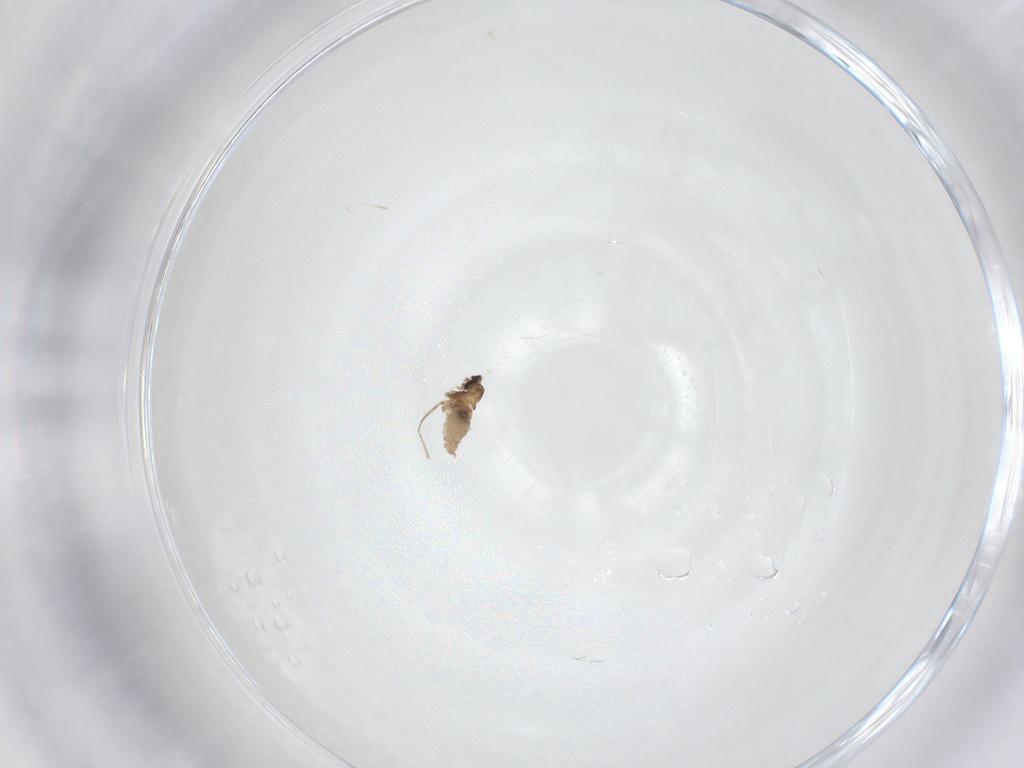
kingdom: Animalia
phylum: Arthropoda
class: Insecta
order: Diptera
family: Cecidomyiidae
